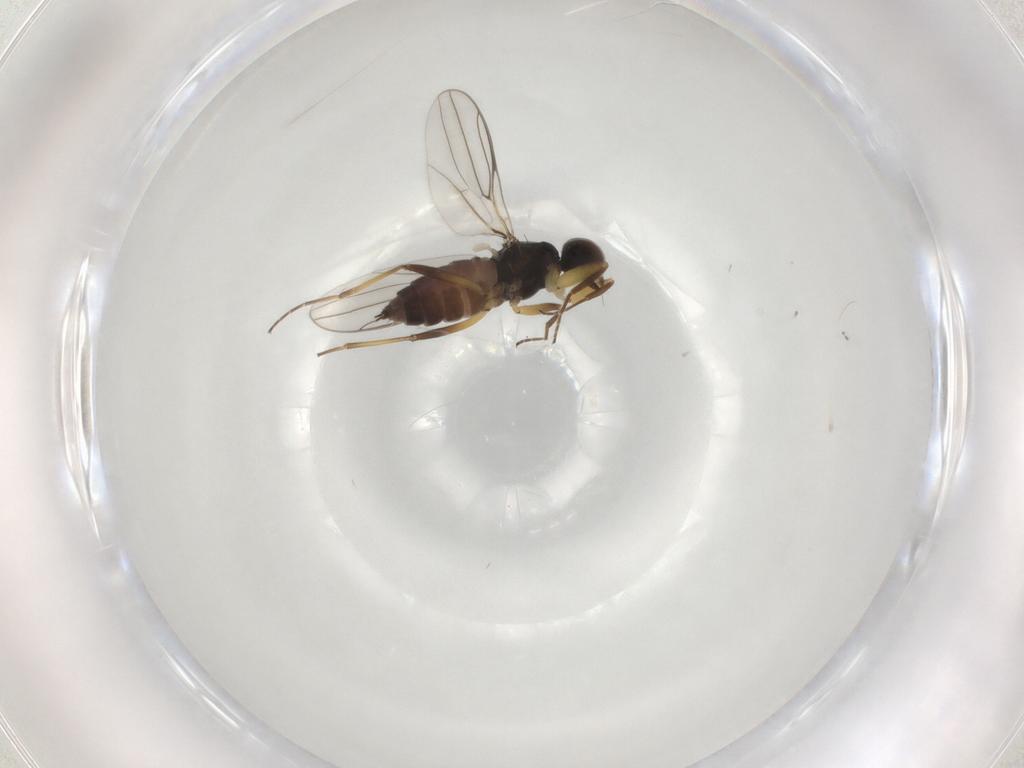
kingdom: Animalia
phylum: Arthropoda
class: Insecta
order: Diptera
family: Hybotidae
